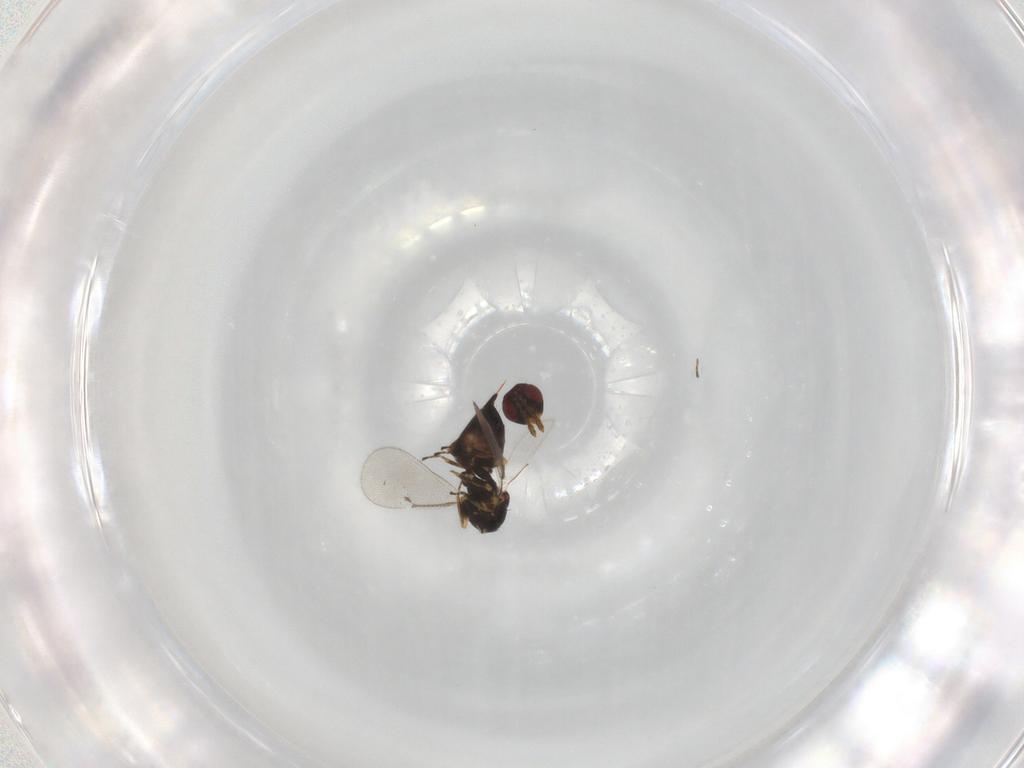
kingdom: Animalia
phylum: Arthropoda
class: Insecta
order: Hymenoptera
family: Eulophidae
